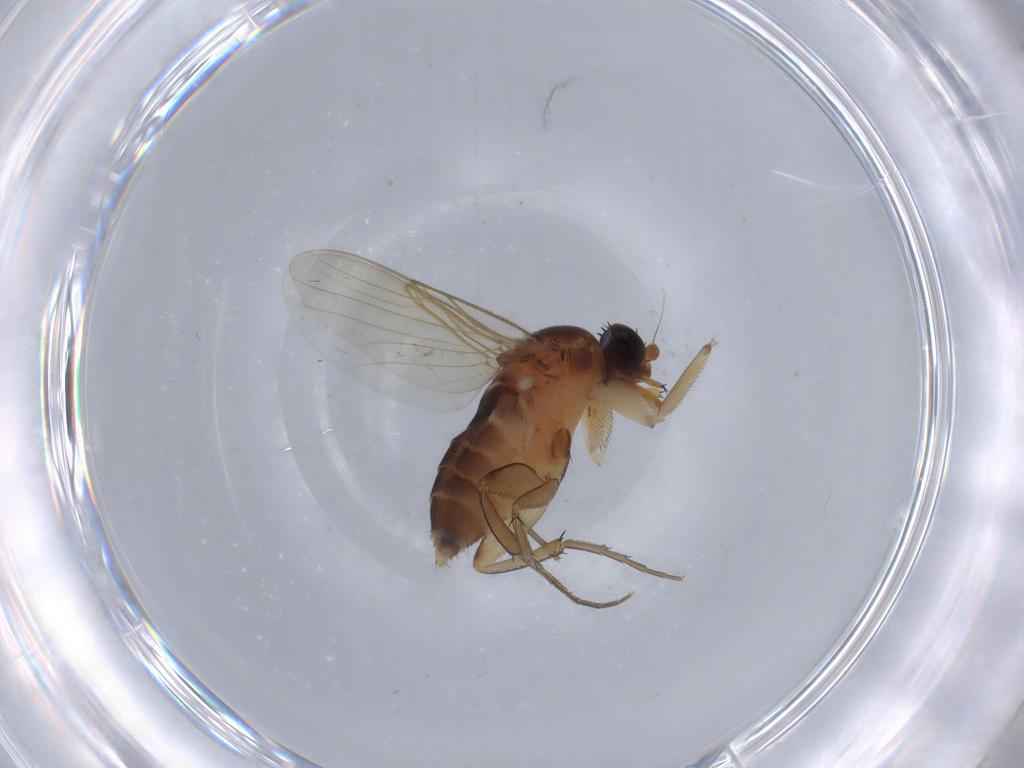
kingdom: Animalia
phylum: Arthropoda
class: Insecta
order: Diptera
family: Phoridae
